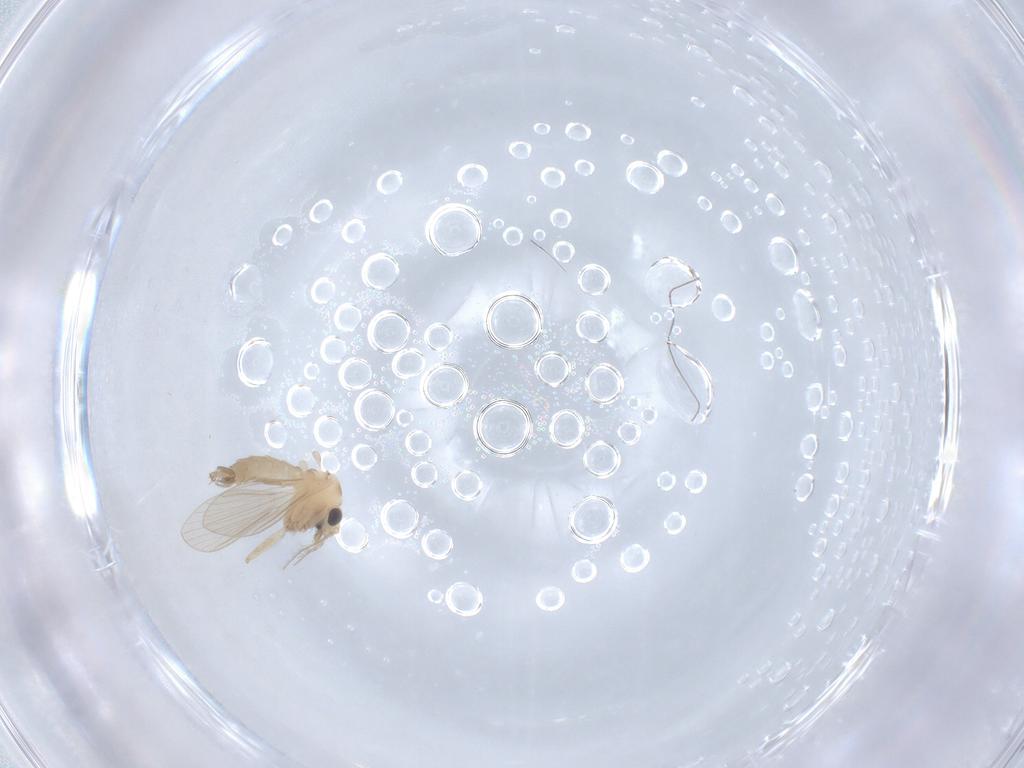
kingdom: Animalia
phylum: Arthropoda
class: Insecta
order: Diptera
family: Psychodidae
